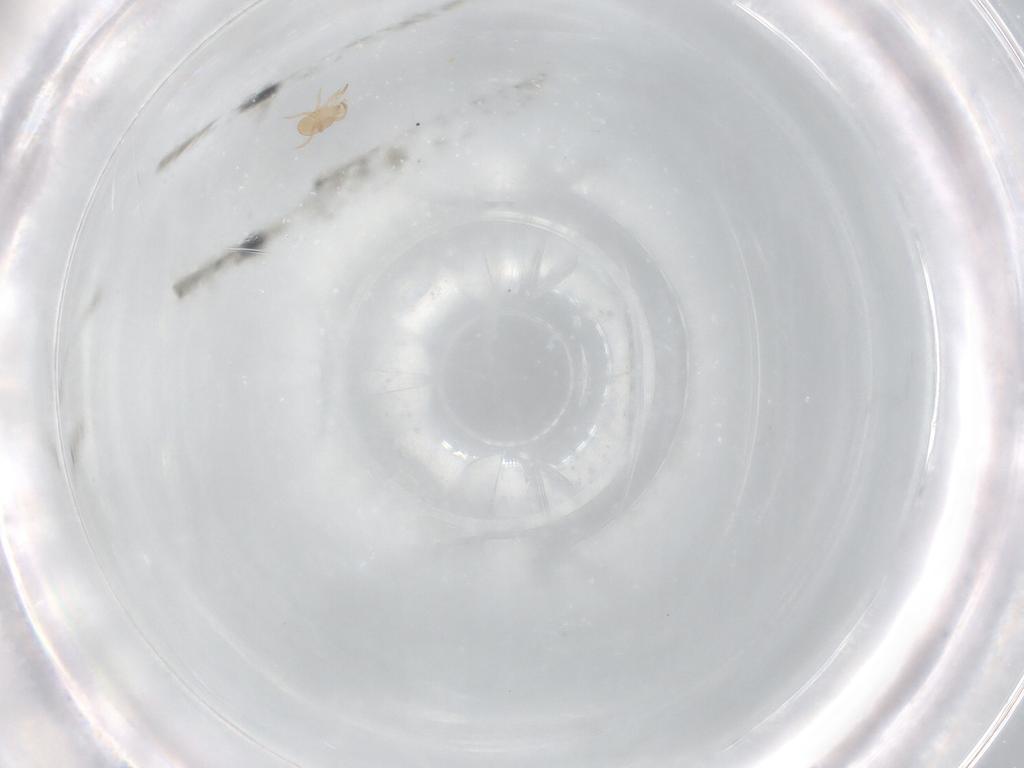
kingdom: Animalia
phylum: Arthropoda
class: Arachnida
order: Mesostigmata
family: Phytoseiidae
